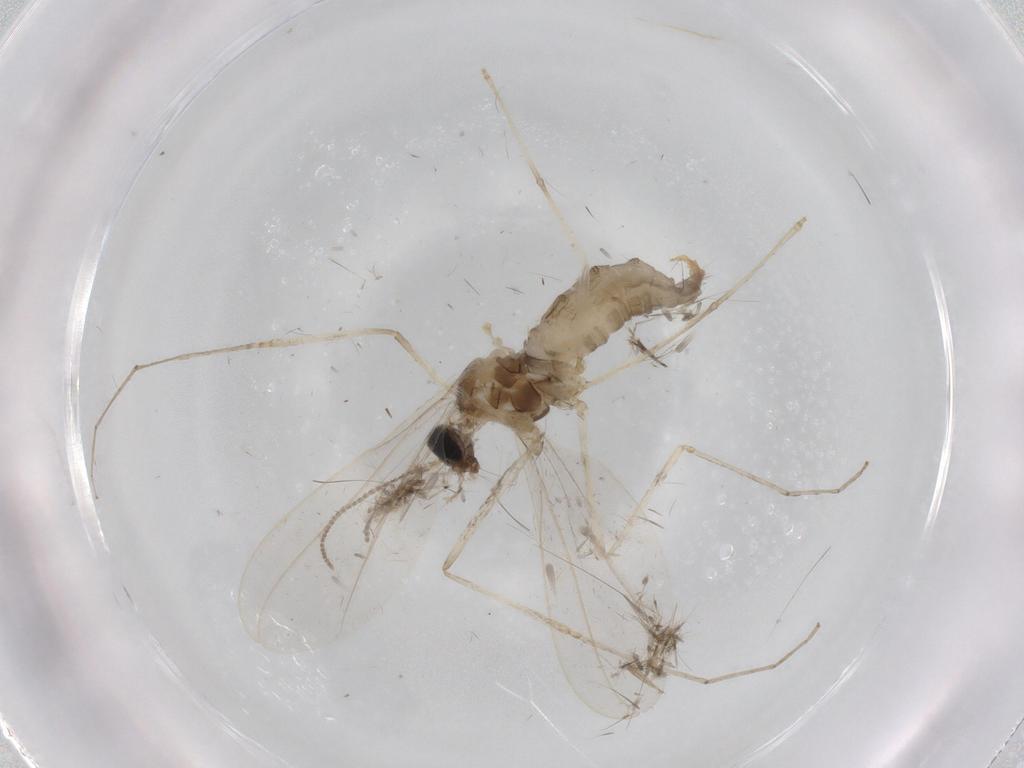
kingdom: Animalia
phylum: Arthropoda
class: Insecta
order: Diptera
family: Cecidomyiidae
